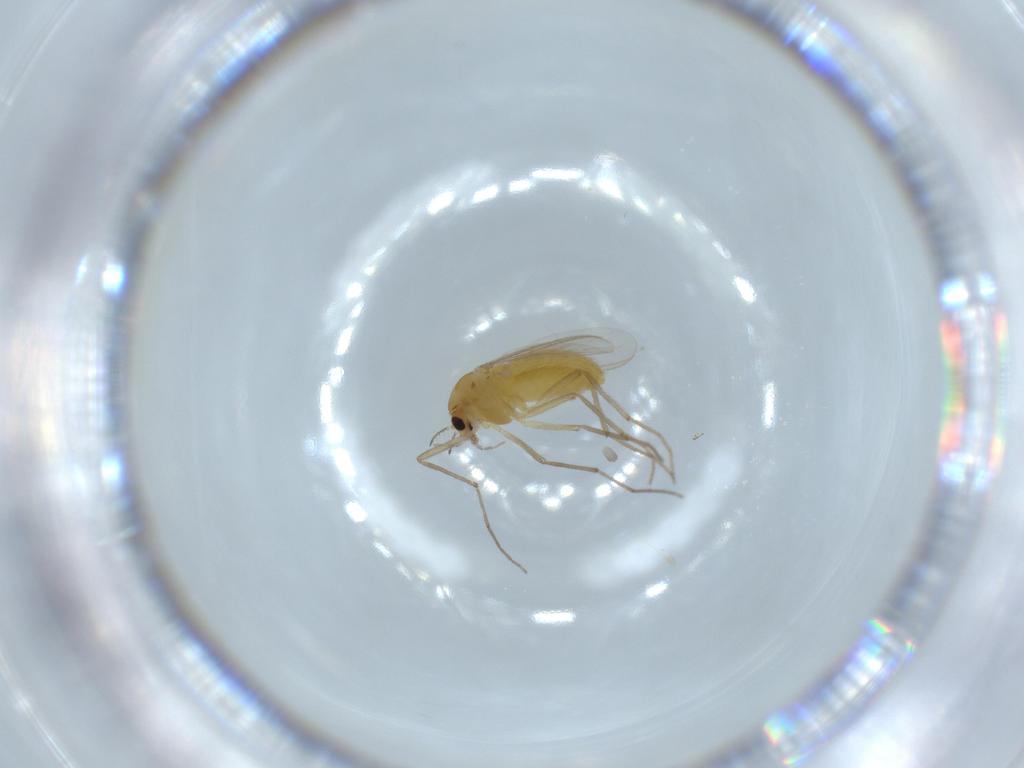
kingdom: Animalia
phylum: Arthropoda
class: Insecta
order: Diptera
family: Chironomidae
